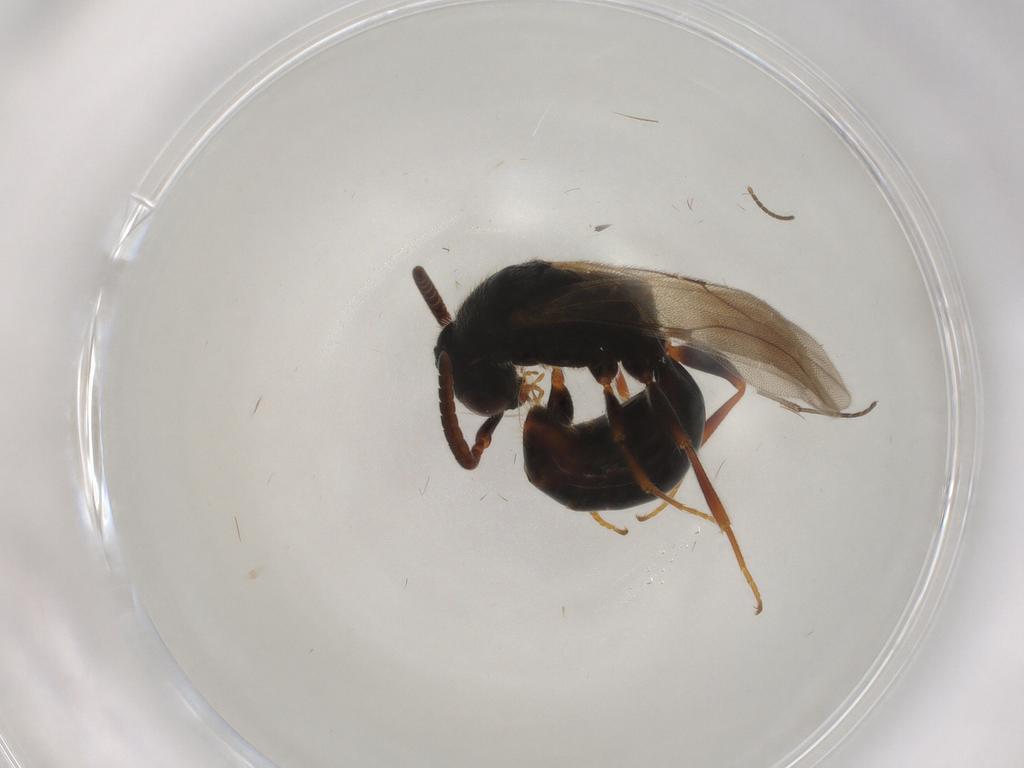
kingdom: Animalia
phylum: Arthropoda
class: Insecta
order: Hymenoptera
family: Bethylidae
